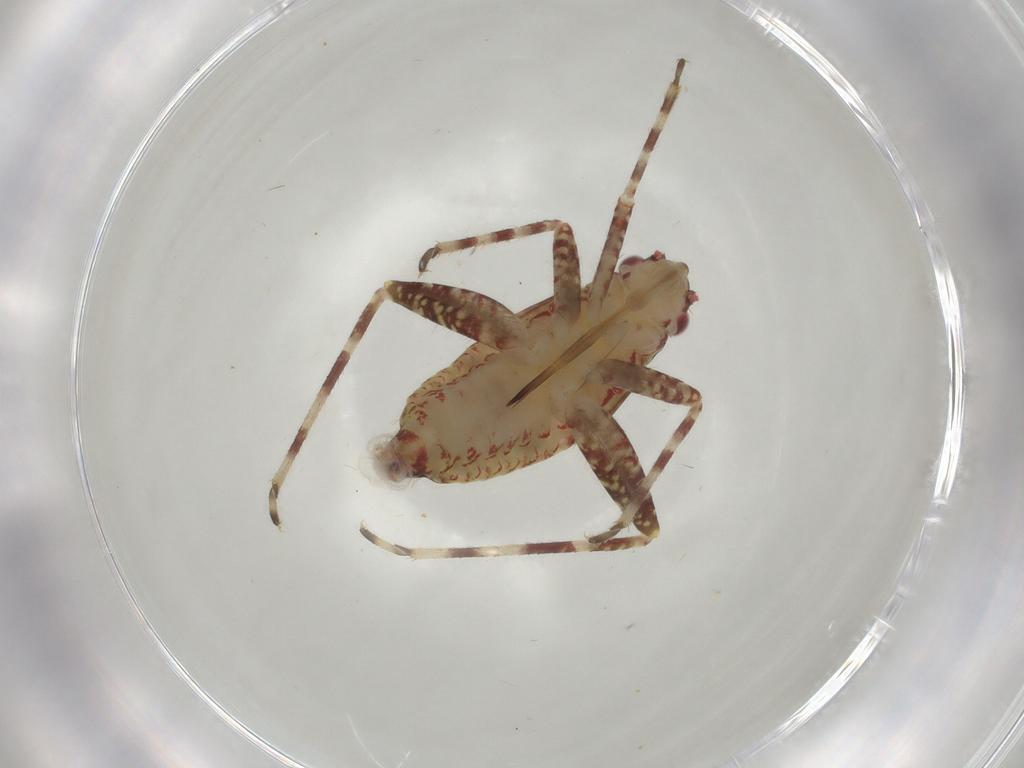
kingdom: Animalia
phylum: Arthropoda
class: Insecta
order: Hemiptera
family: Miridae
